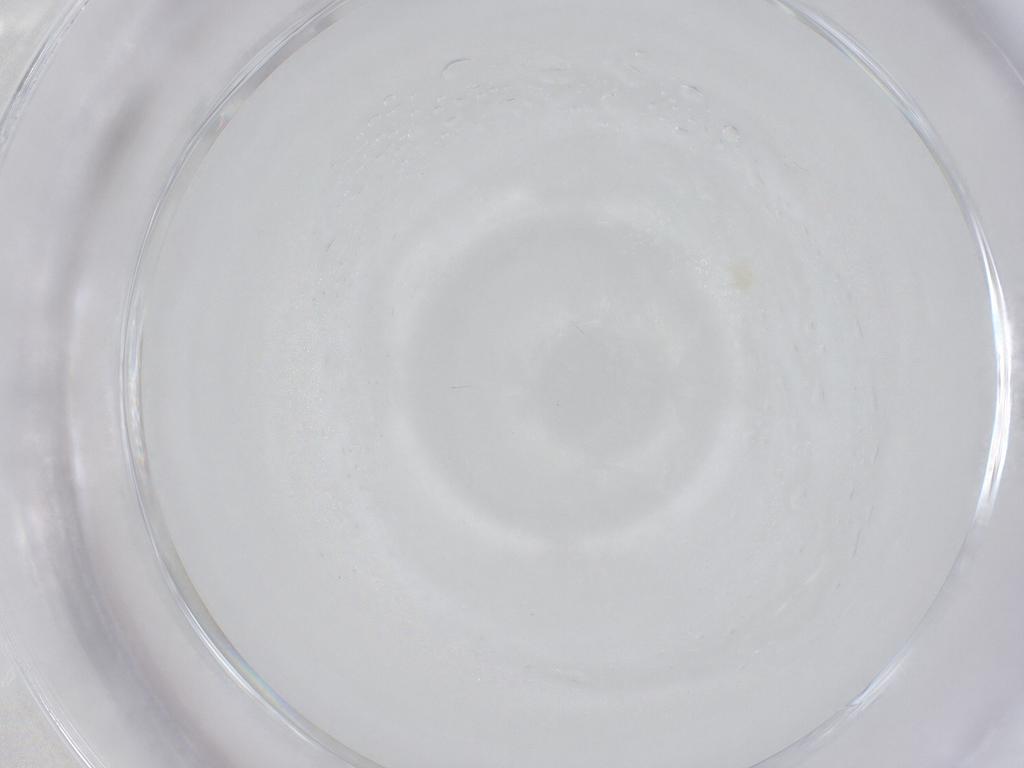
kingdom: Animalia
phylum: Arthropoda
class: Arachnida
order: Trombidiformes
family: Anystidae
